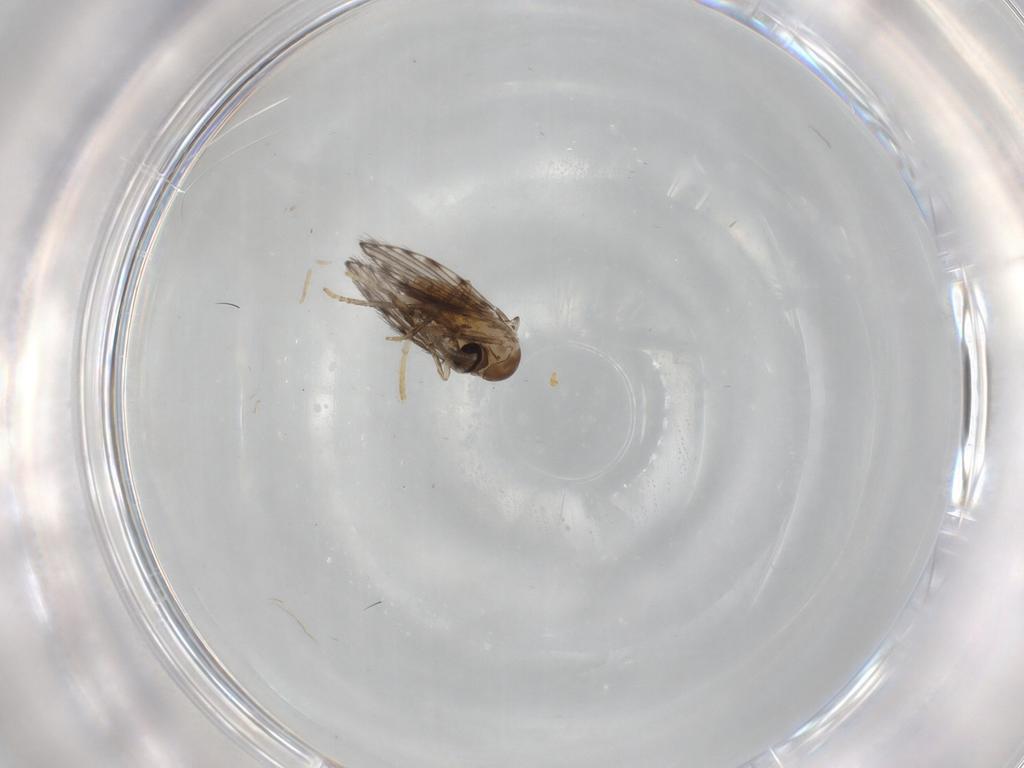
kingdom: Animalia
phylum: Arthropoda
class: Insecta
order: Diptera
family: Psychodidae
